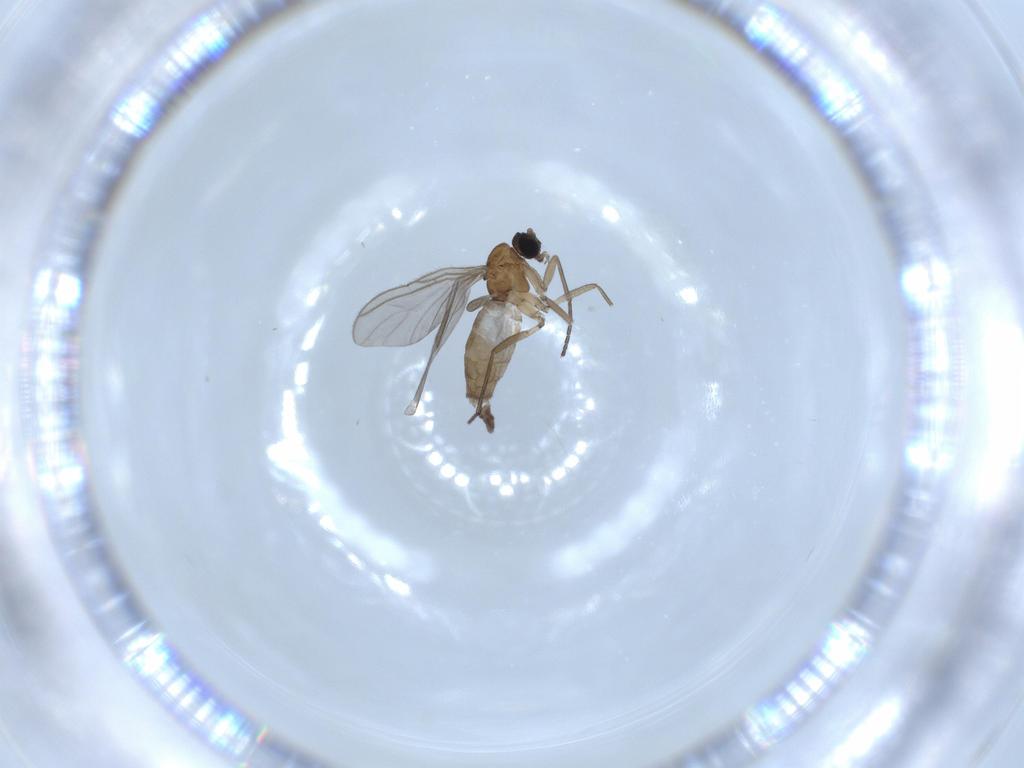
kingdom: Animalia
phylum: Arthropoda
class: Insecta
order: Diptera
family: Sciaridae
